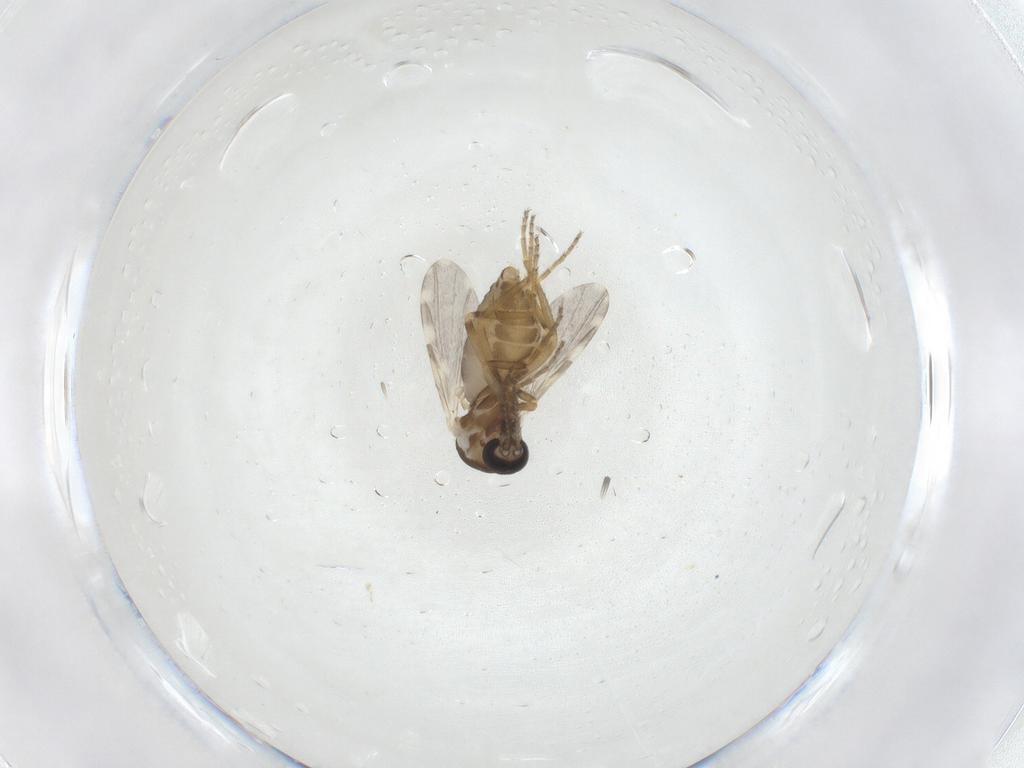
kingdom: Animalia
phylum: Arthropoda
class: Insecta
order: Diptera
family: Ceratopogonidae
